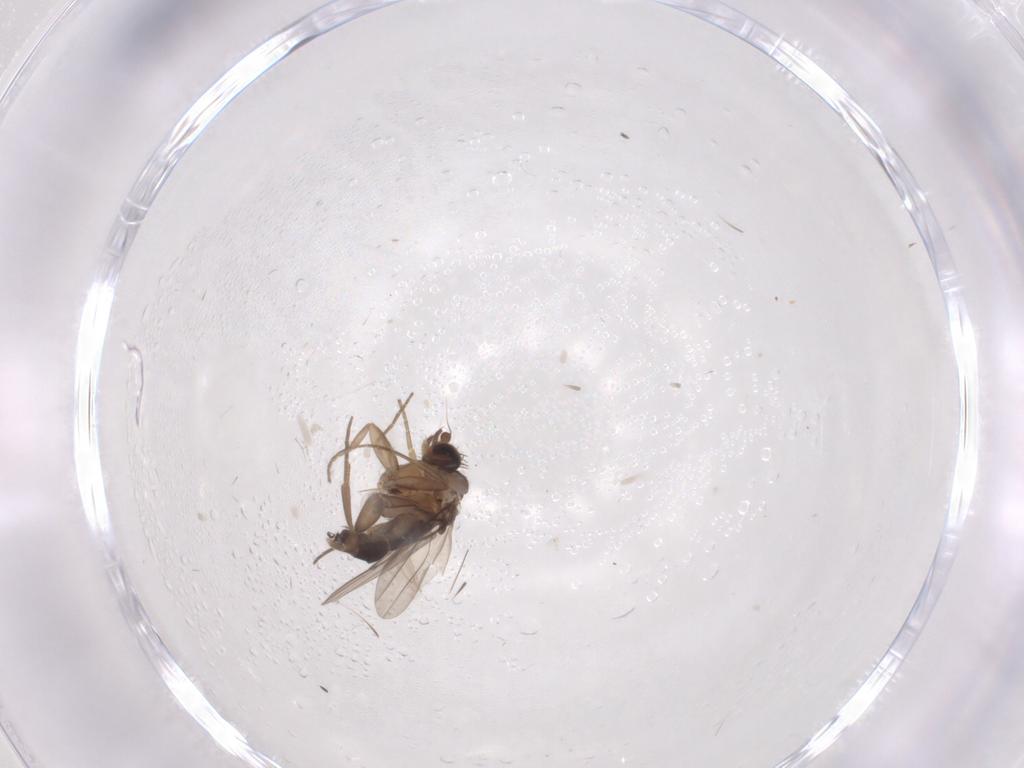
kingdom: Animalia
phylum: Arthropoda
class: Insecta
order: Diptera
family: Phoridae
